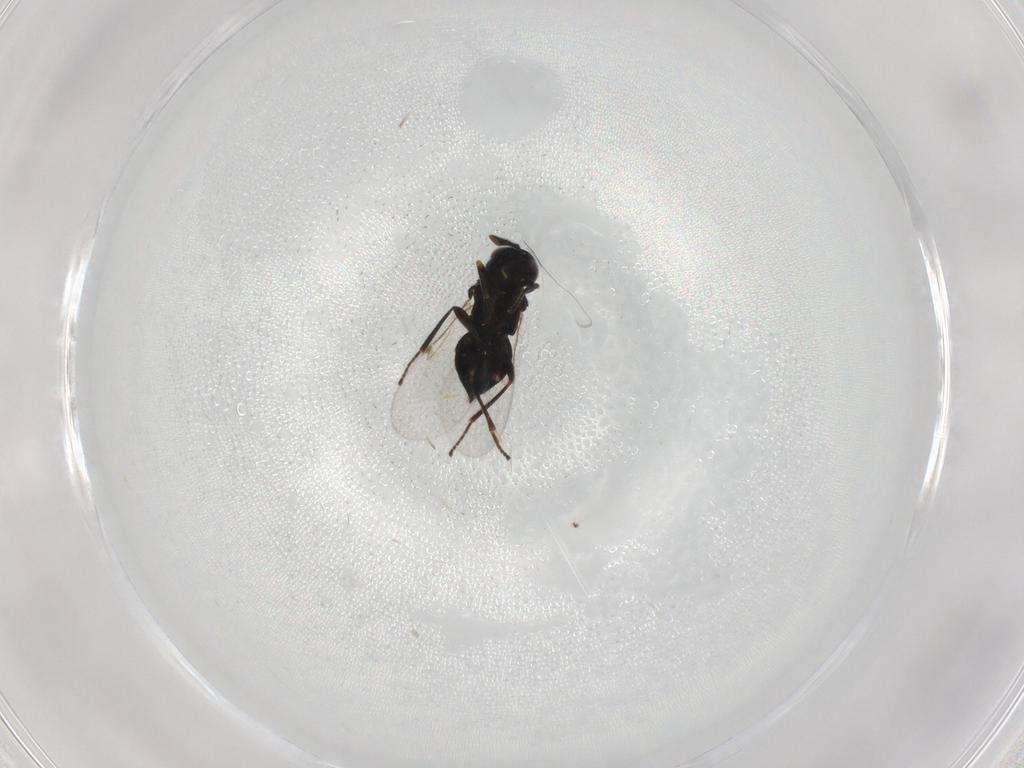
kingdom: Animalia
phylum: Arthropoda
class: Insecta
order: Hymenoptera
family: Encyrtidae
